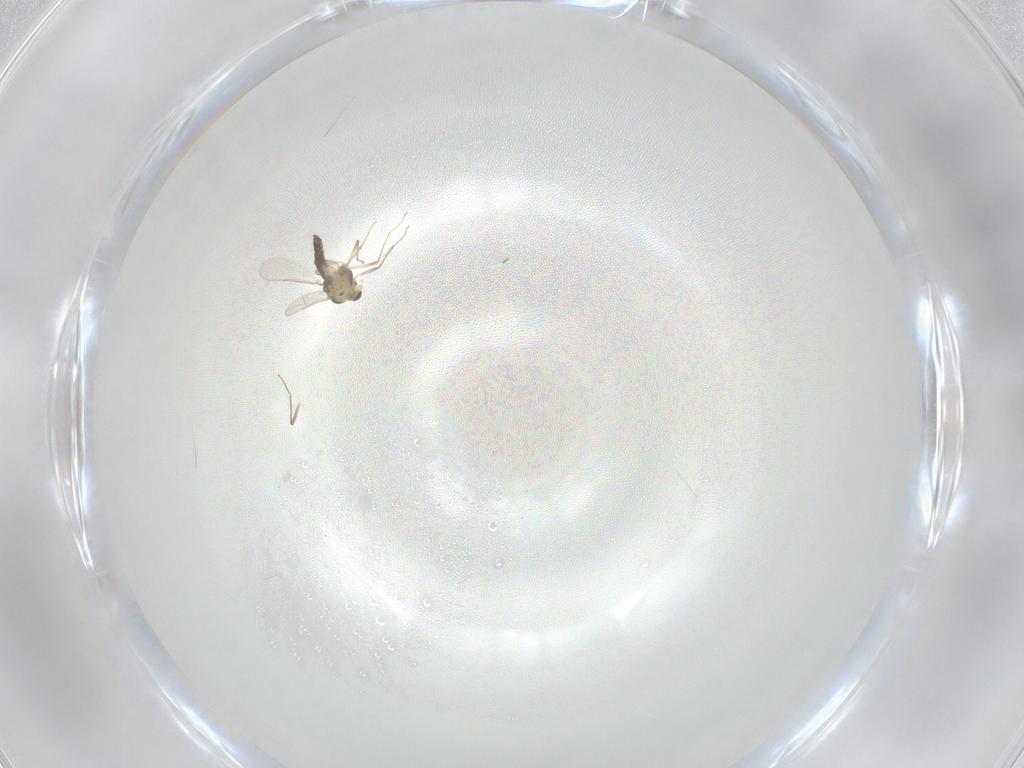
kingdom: Animalia
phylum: Arthropoda
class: Insecta
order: Diptera
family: Chironomidae
